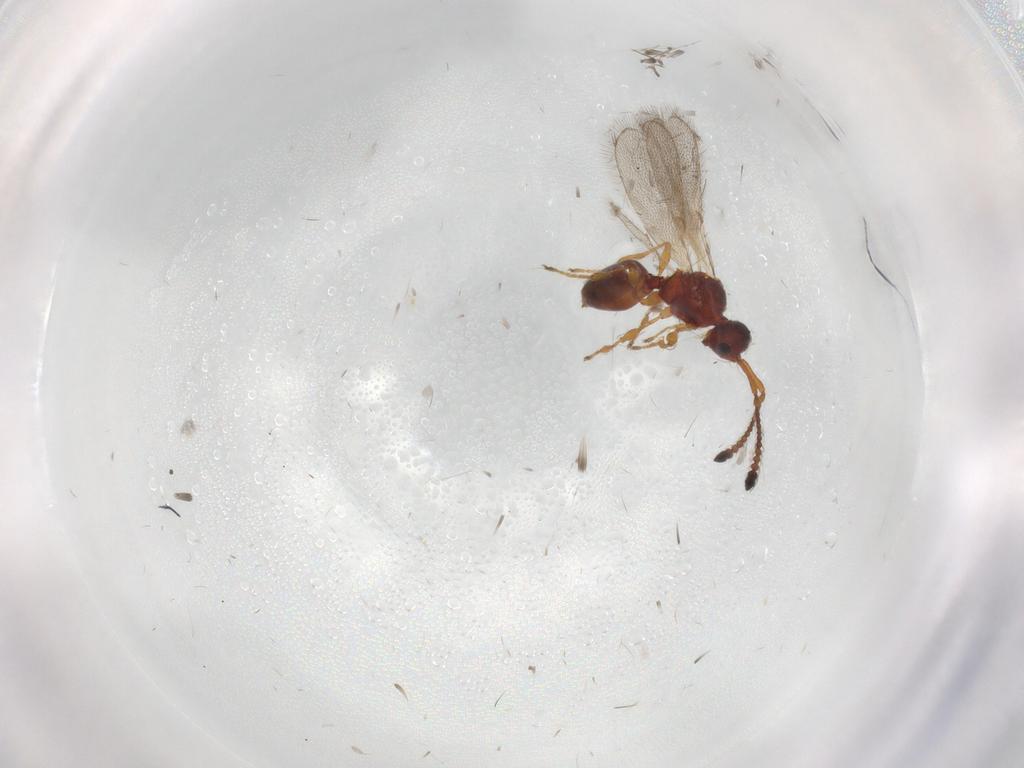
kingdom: Animalia
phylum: Arthropoda
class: Insecta
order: Hymenoptera
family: Diapriidae
